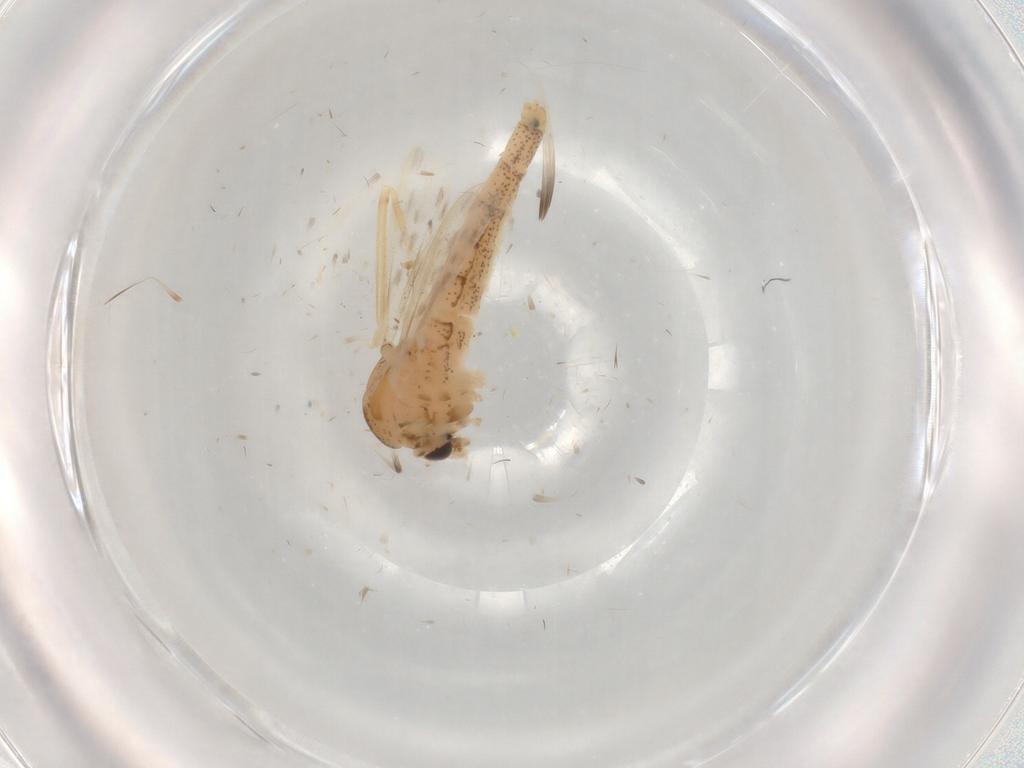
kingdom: Animalia
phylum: Arthropoda
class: Insecta
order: Diptera
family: Chaoboridae
